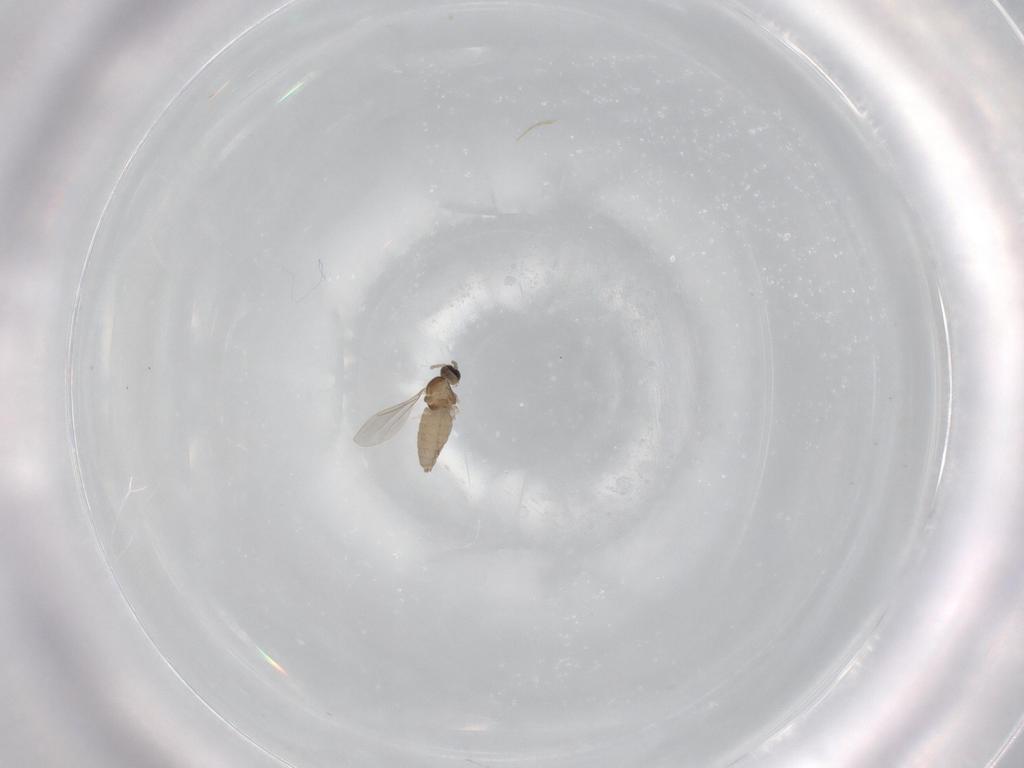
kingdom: Animalia
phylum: Arthropoda
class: Insecta
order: Diptera
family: Cecidomyiidae
